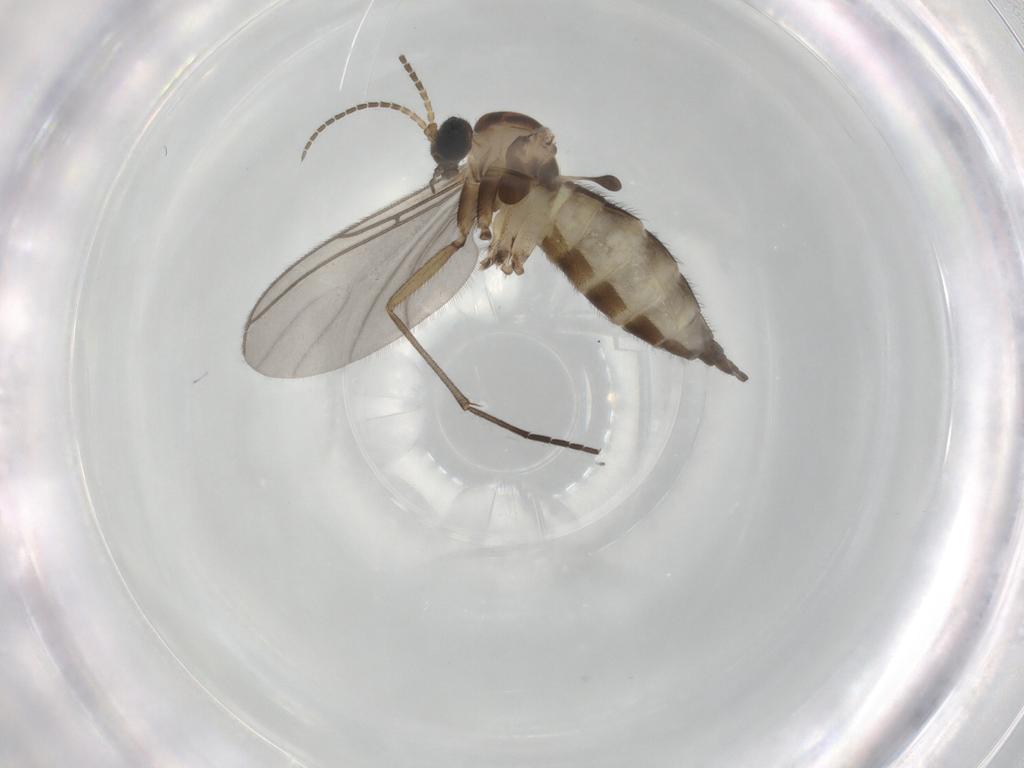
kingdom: Animalia
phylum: Arthropoda
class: Insecta
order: Diptera
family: Sciaridae
